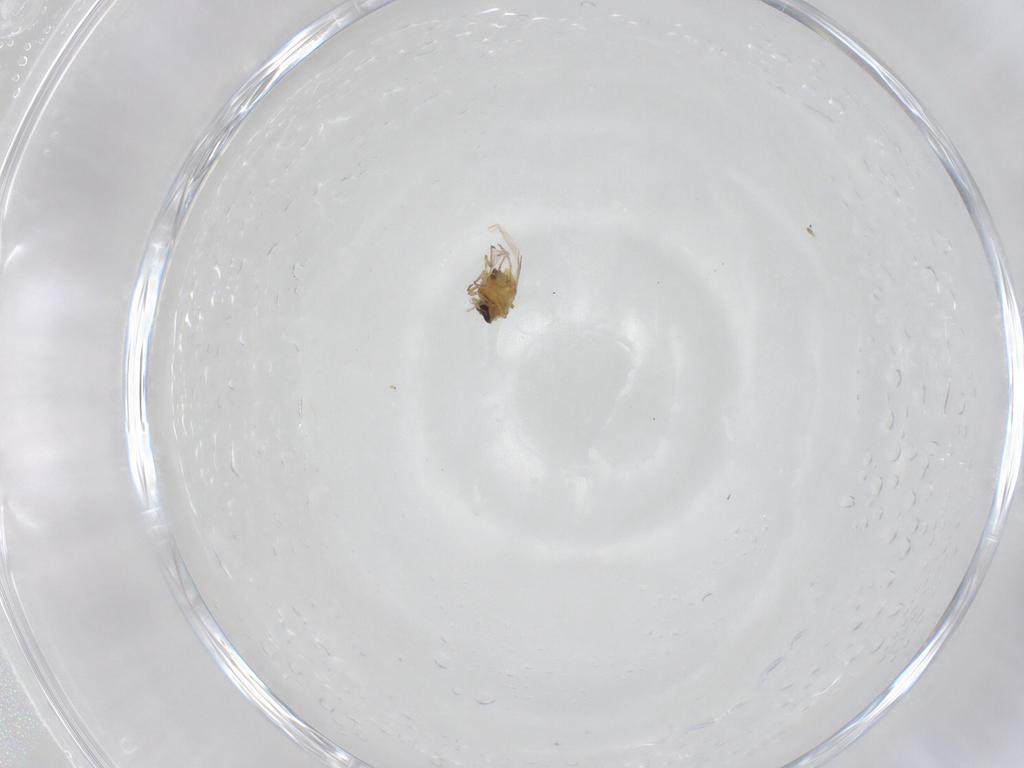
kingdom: Animalia
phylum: Arthropoda
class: Insecta
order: Diptera
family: Ceratopogonidae
